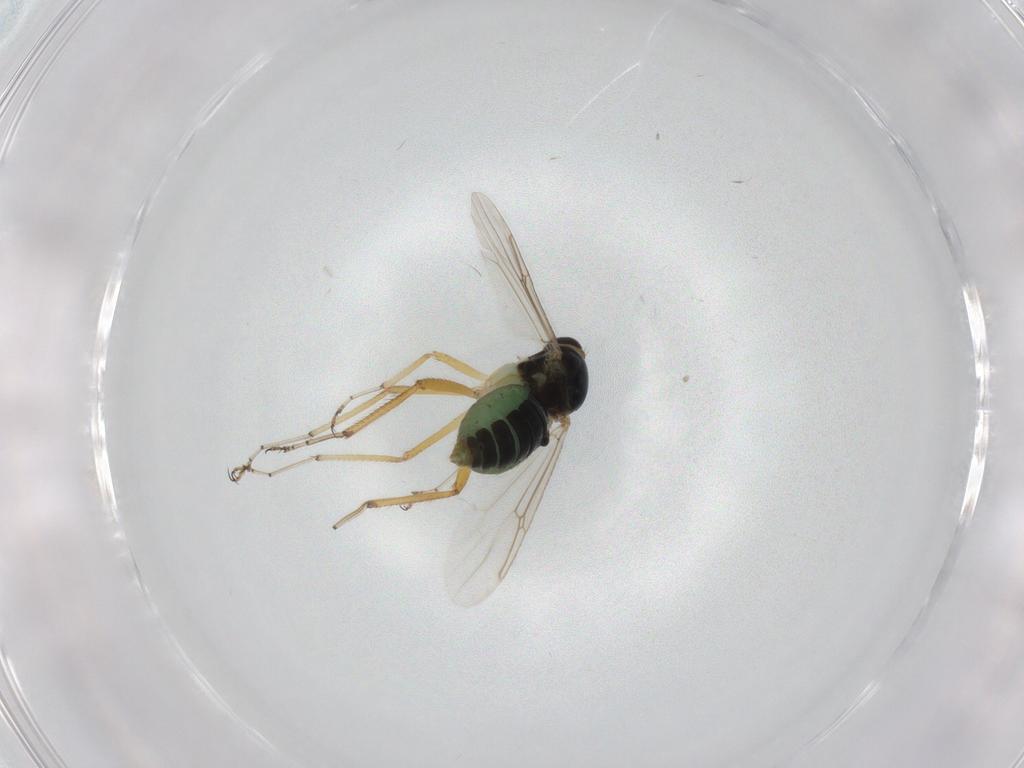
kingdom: Animalia
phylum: Arthropoda
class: Insecta
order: Diptera
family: Ceratopogonidae
